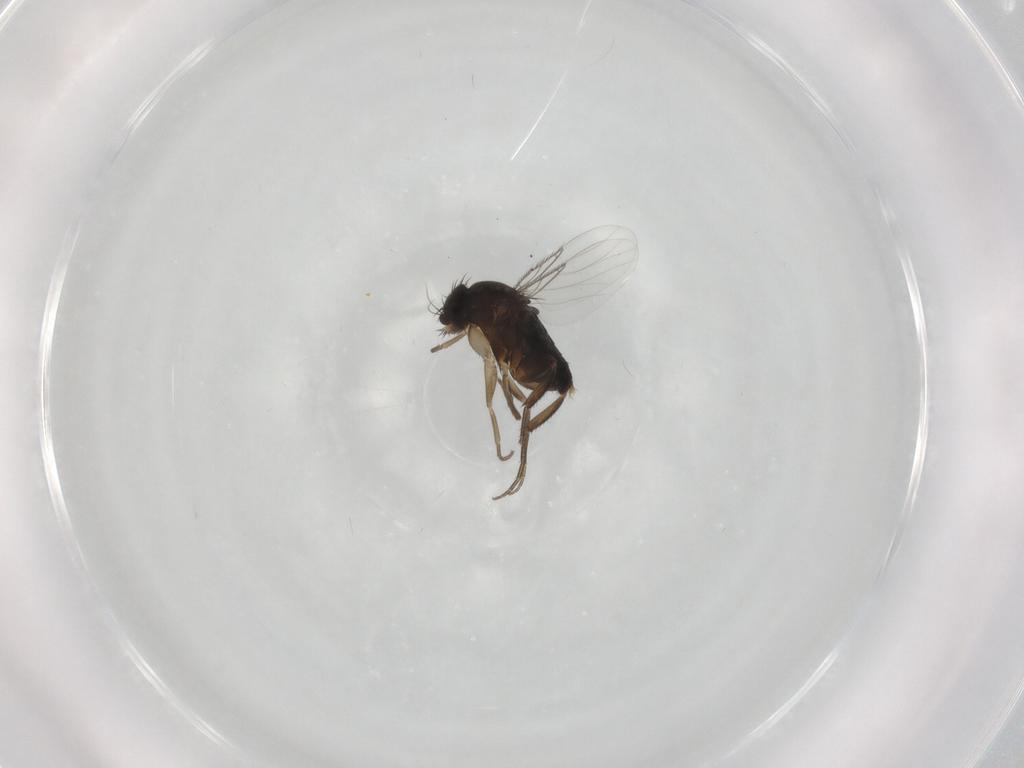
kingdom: Animalia
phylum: Arthropoda
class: Insecta
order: Diptera
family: Phoridae
